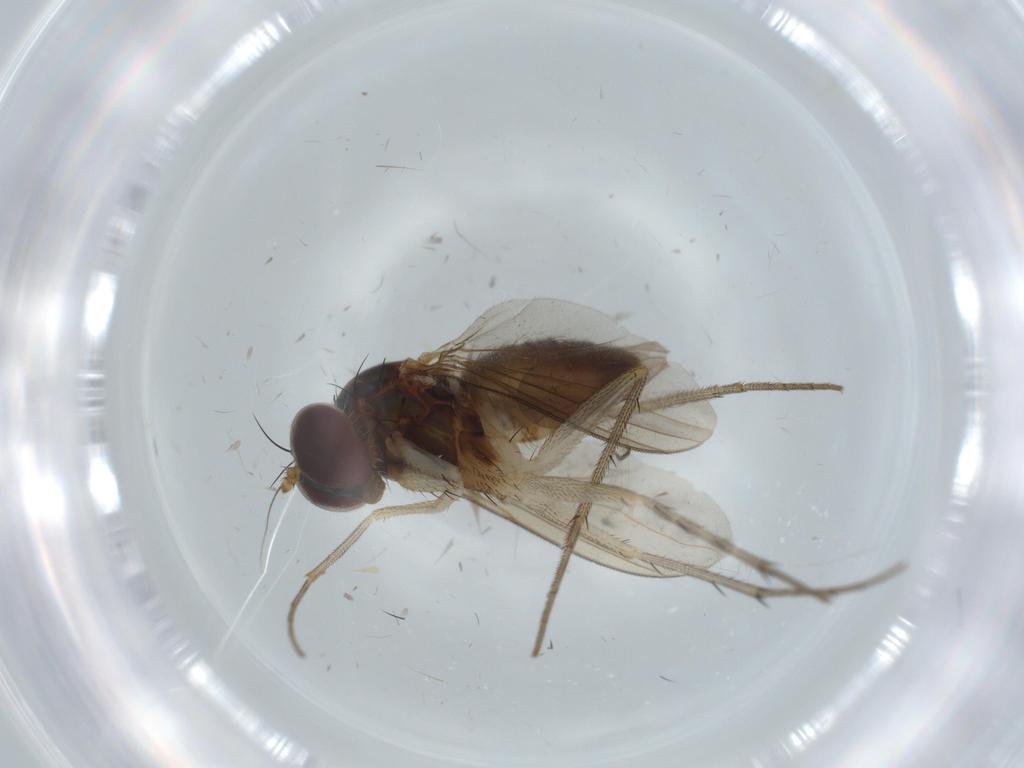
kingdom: Animalia
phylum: Arthropoda
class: Insecta
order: Diptera
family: Dolichopodidae
